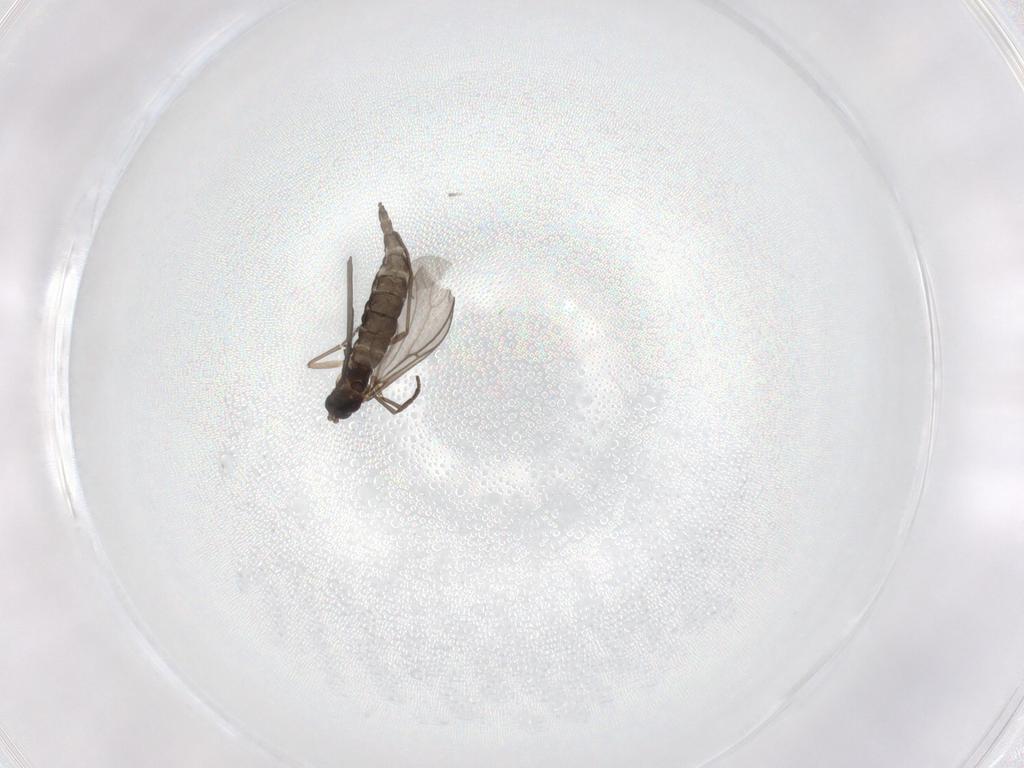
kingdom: Animalia
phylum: Arthropoda
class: Insecta
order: Diptera
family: Sciaridae
